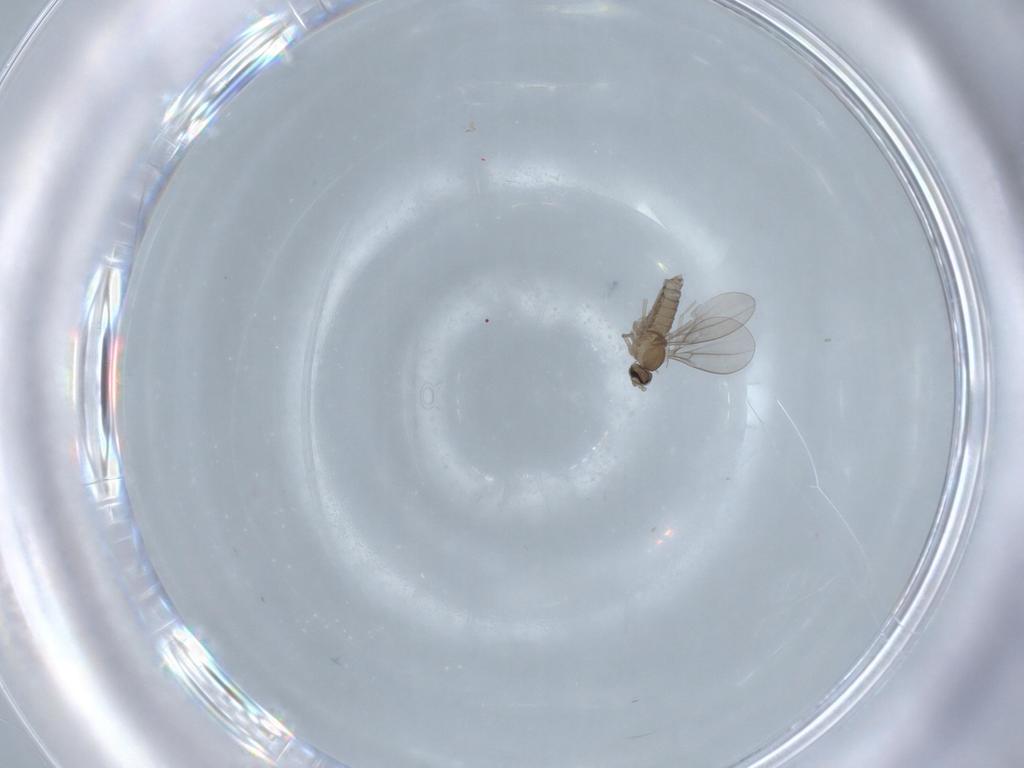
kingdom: Animalia
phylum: Arthropoda
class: Insecta
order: Diptera
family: Cecidomyiidae
